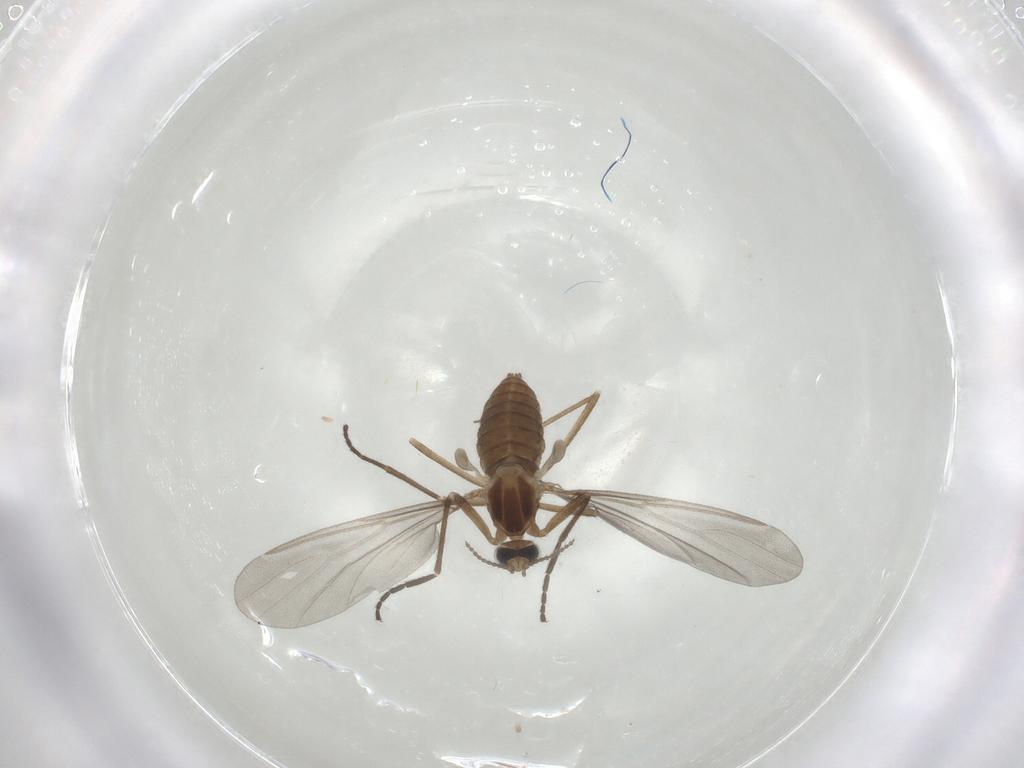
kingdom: Animalia
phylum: Arthropoda
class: Insecta
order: Diptera
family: Cecidomyiidae
